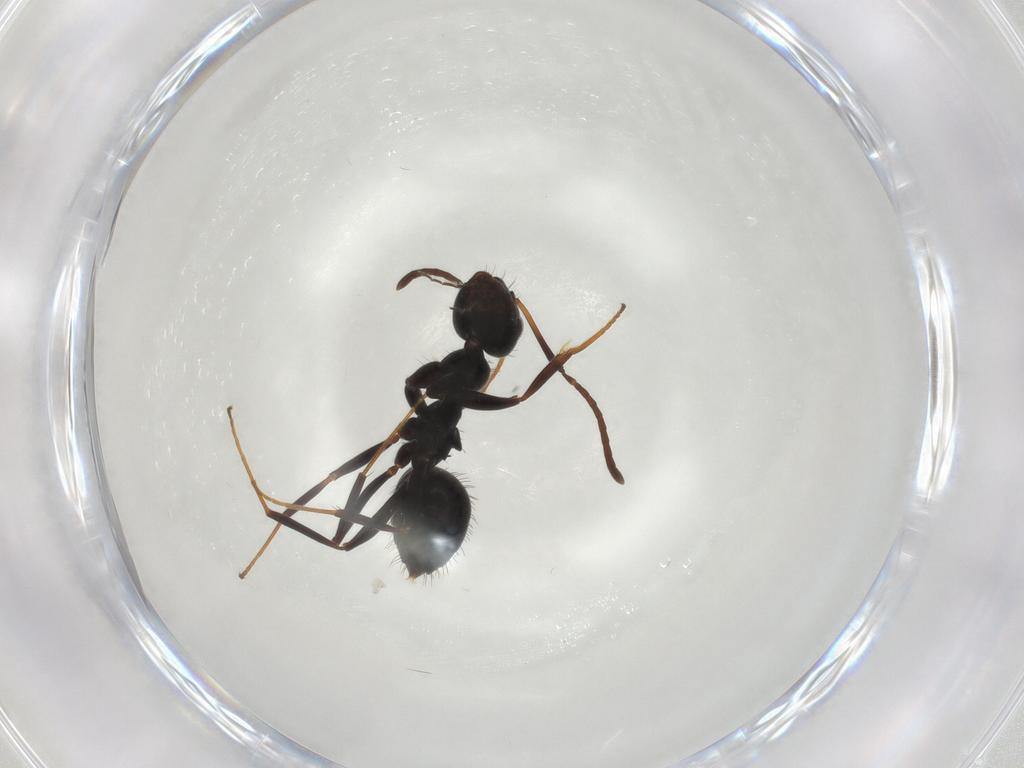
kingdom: Animalia
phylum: Arthropoda
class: Insecta
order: Hymenoptera
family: Formicidae
